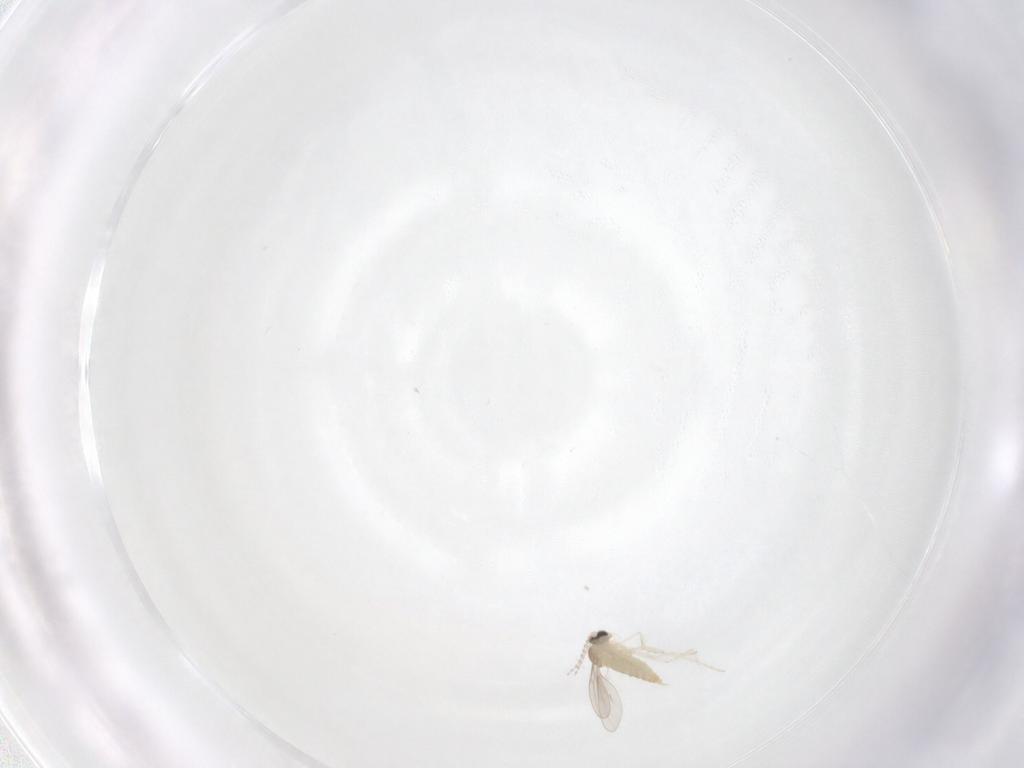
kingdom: Animalia
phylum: Arthropoda
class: Insecta
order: Diptera
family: Cecidomyiidae
